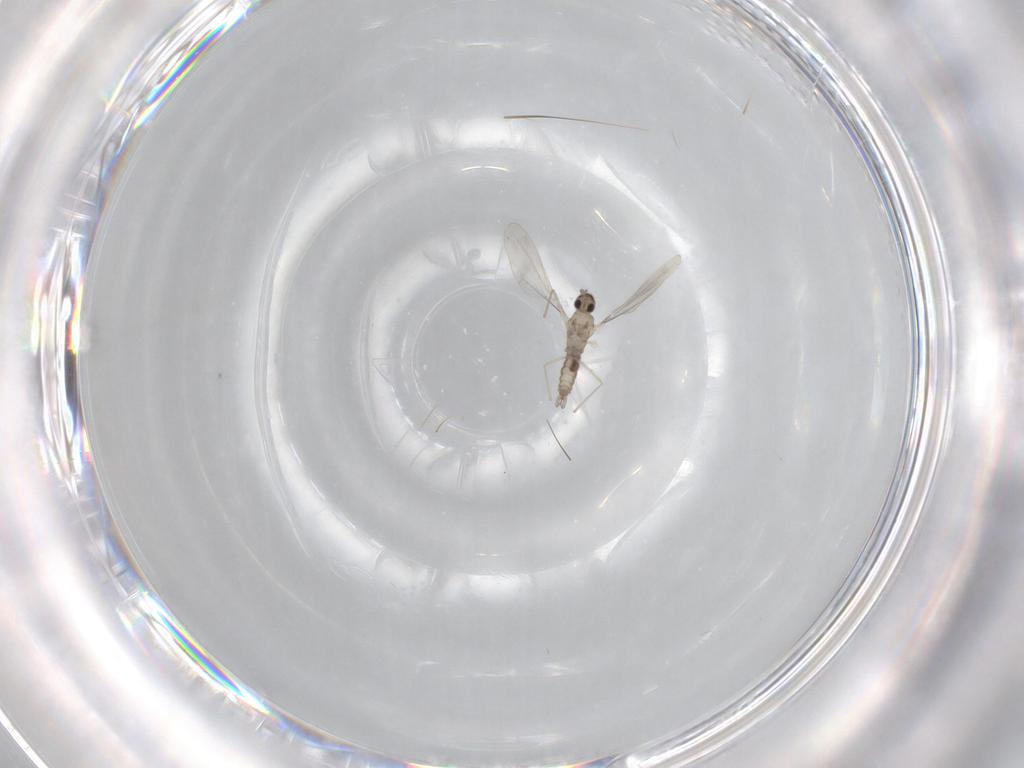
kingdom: Animalia
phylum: Arthropoda
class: Insecta
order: Diptera
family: Cecidomyiidae
